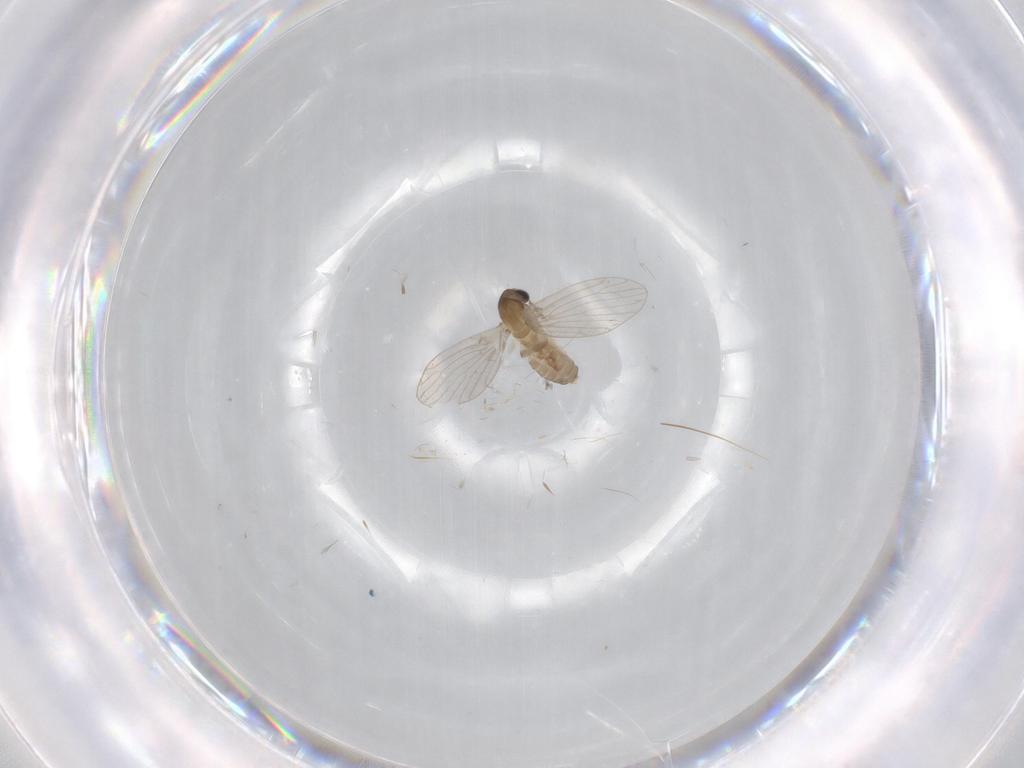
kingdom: Animalia
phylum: Arthropoda
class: Insecta
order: Diptera
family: Psychodidae
